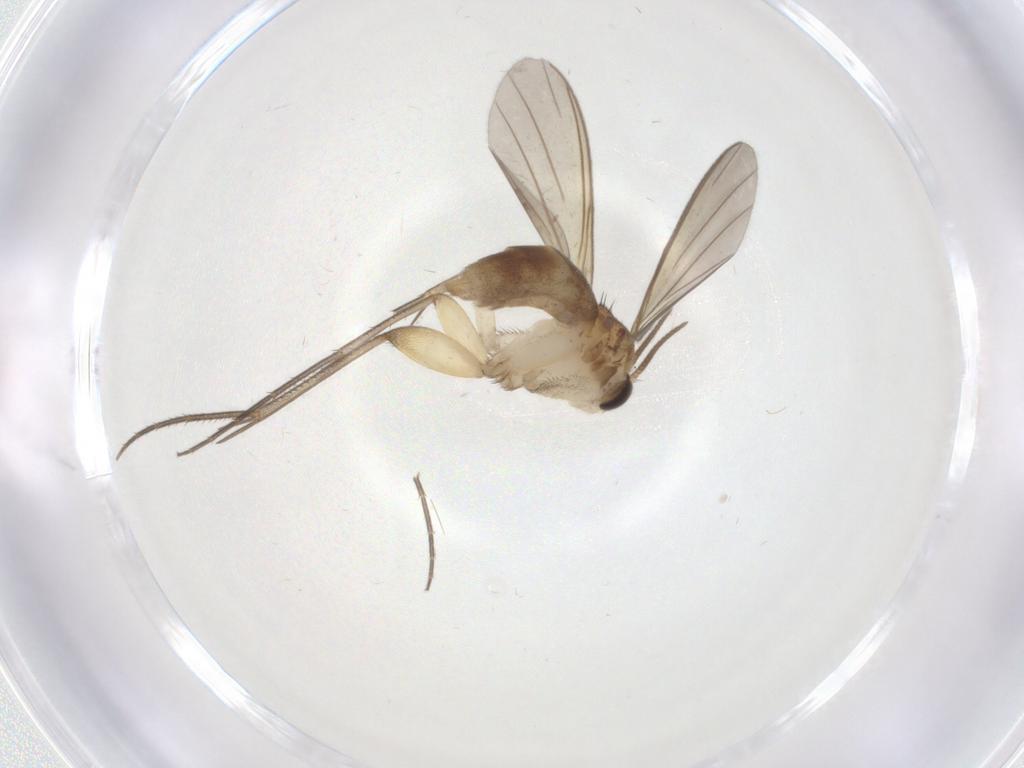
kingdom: Animalia
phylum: Arthropoda
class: Insecta
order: Diptera
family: Mycetophilidae
